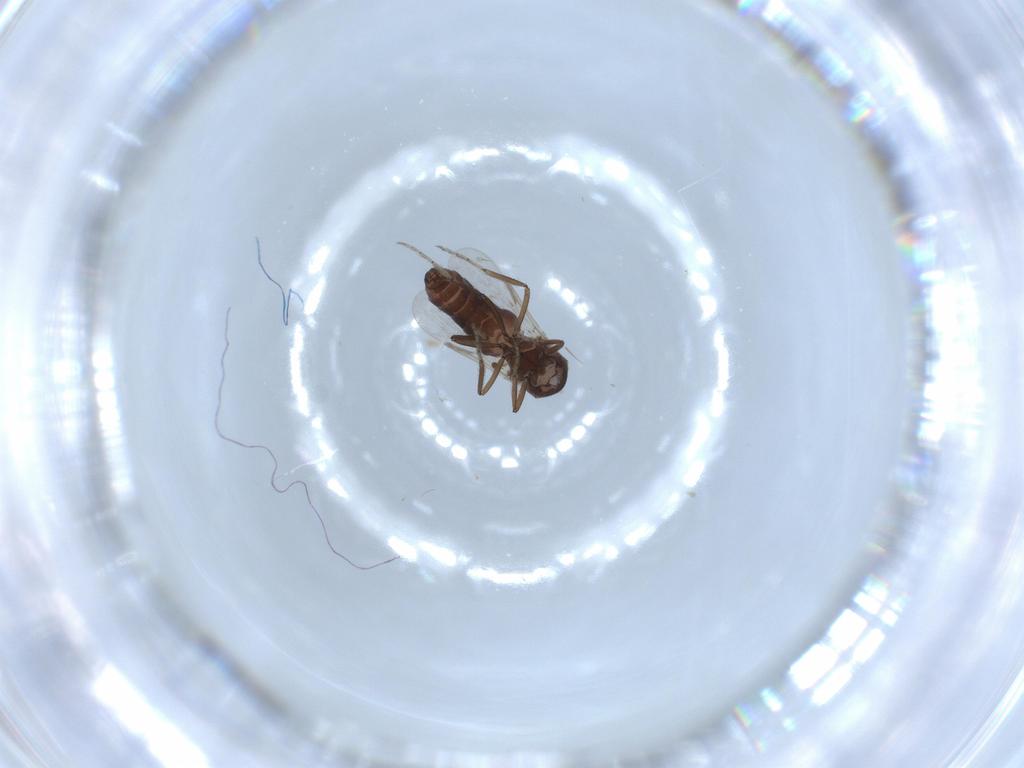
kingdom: Animalia
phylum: Arthropoda
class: Insecta
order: Diptera
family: Ceratopogonidae
